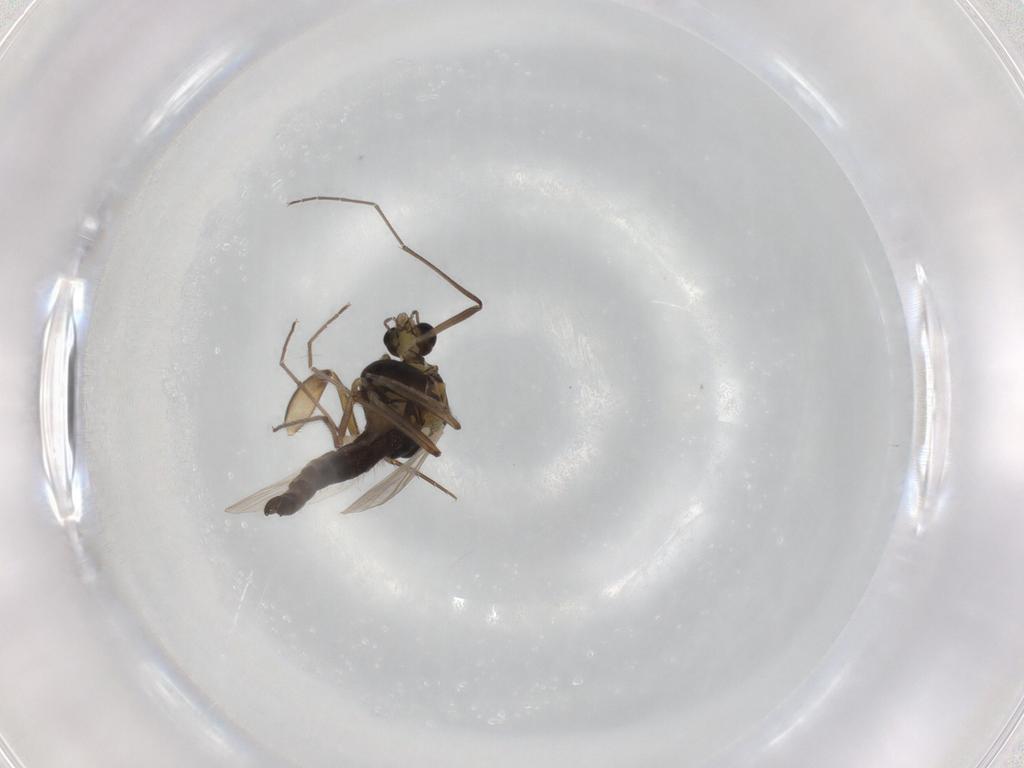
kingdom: Animalia
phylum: Arthropoda
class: Insecta
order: Diptera
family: Chironomidae
